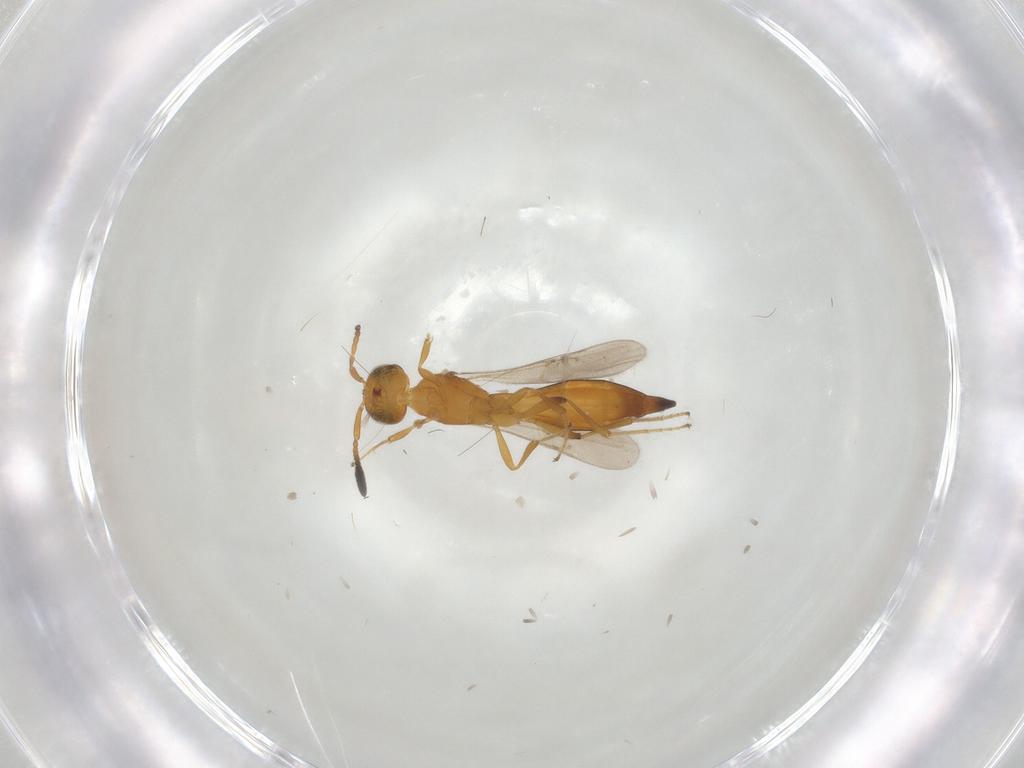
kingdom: Animalia
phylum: Arthropoda
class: Insecta
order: Hymenoptera
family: Scelionidae
